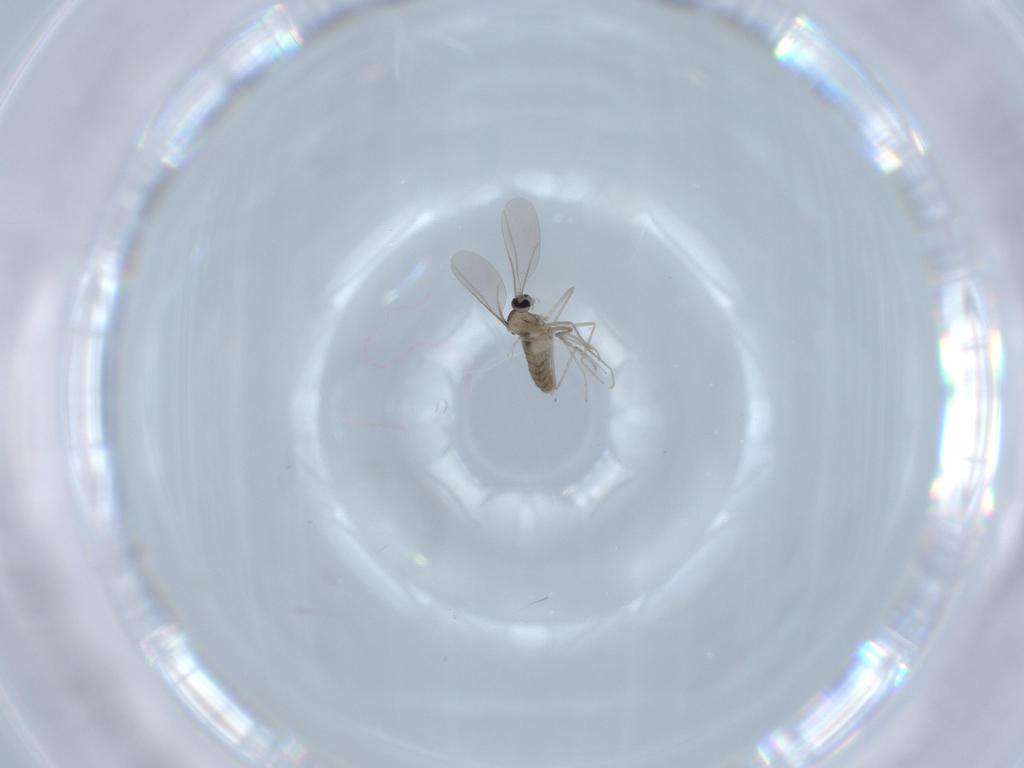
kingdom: Animalia
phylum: Arthropoda
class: Insecta
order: Diptera
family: Cecidomyiidae
